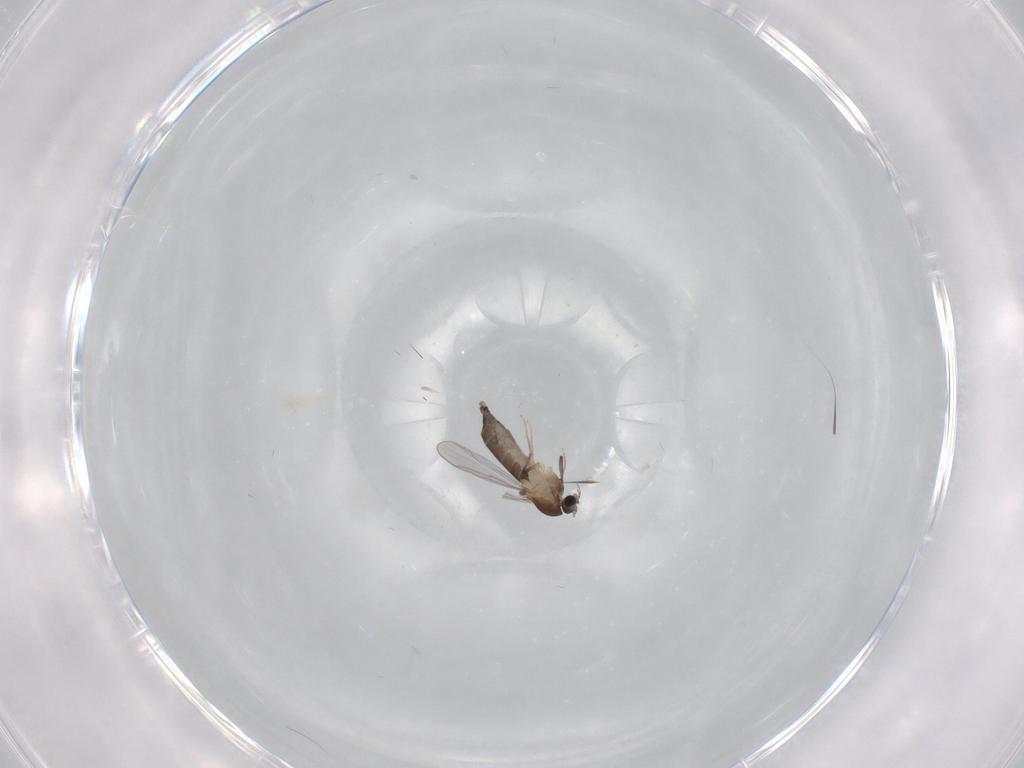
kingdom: Animalia
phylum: Arthropoda
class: Insecta
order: Diptera
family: Chironomidae
